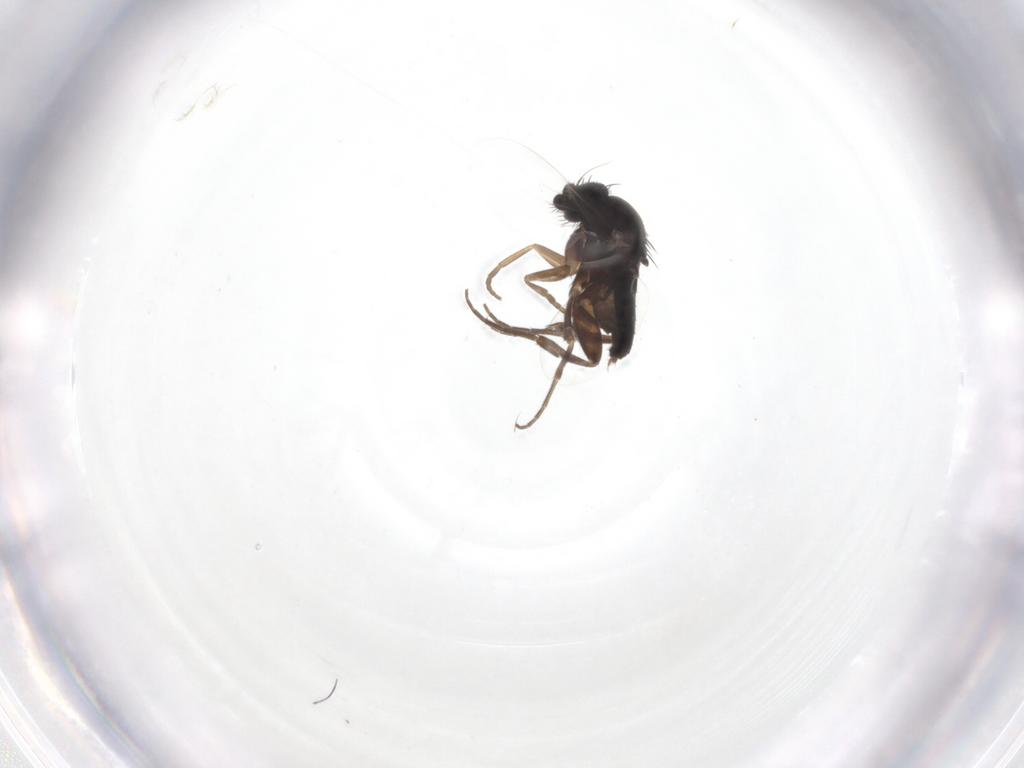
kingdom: Animalia
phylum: Arthropoda
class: Insecta
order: Diptera
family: Phoridae
